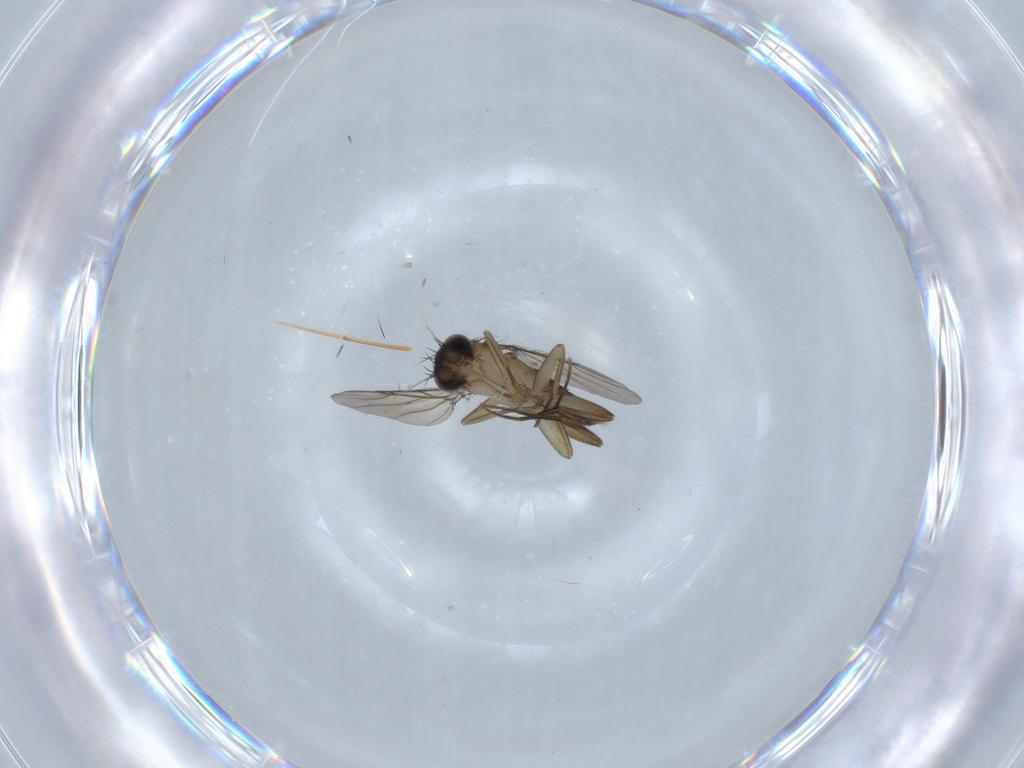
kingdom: Animalia
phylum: Arthropoda
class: Insecta
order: Diptera
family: Phoridae
